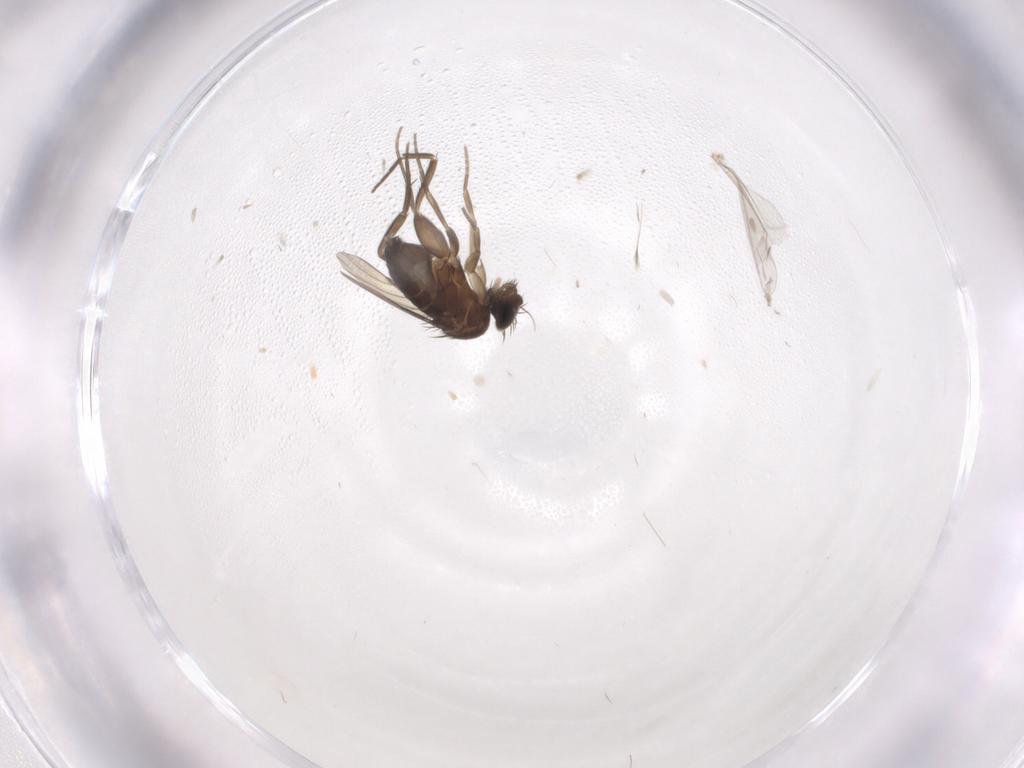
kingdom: Animalia
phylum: Arthropoda
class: Insecta
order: Diptera
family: Phoridae
